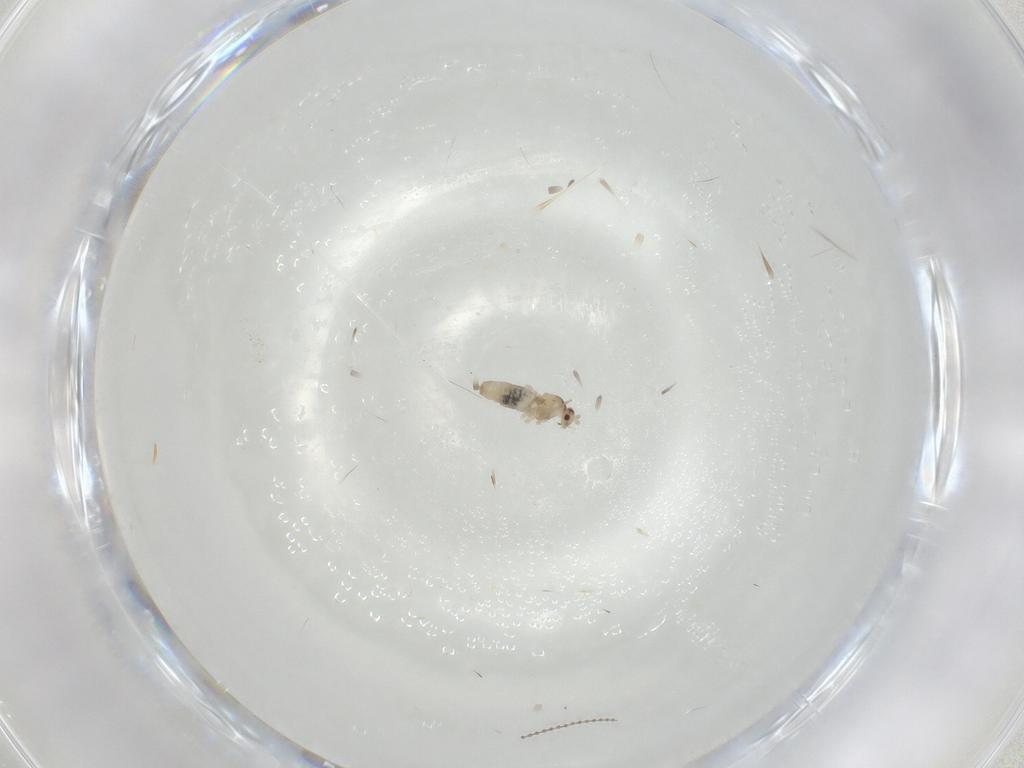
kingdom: Animalia
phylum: Arthropoda
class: Insecta
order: Diptera
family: Cecidomyiidae
